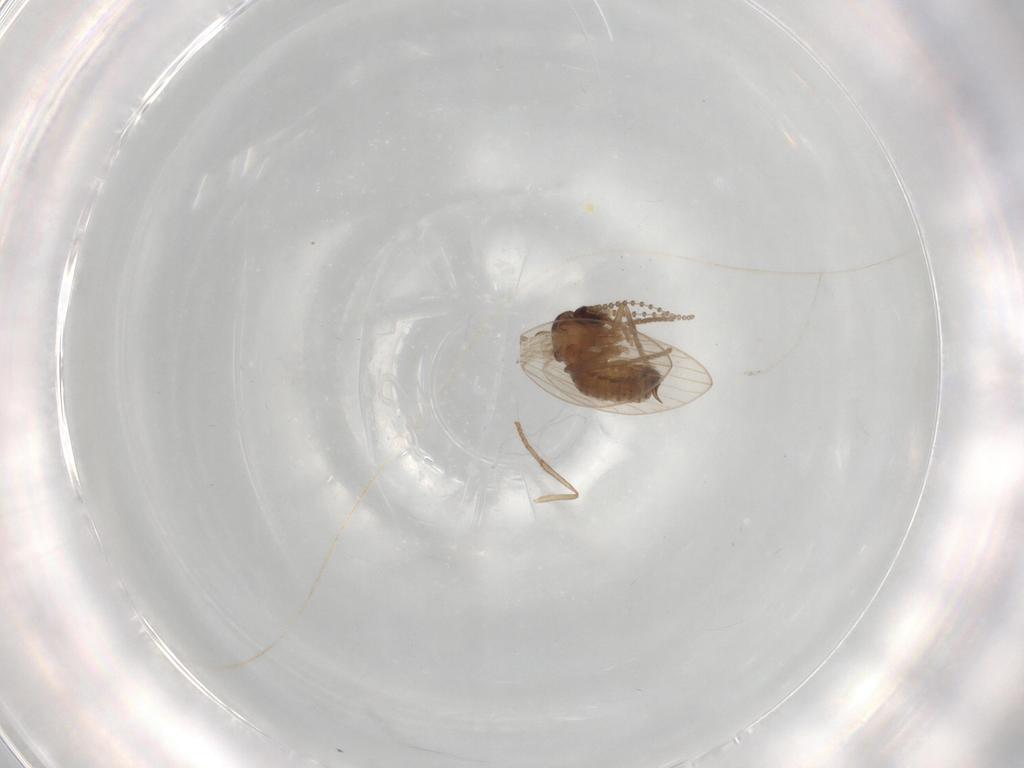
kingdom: Animalia
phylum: Arthropoda
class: Insecta
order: Diptera
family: Psychodidae
